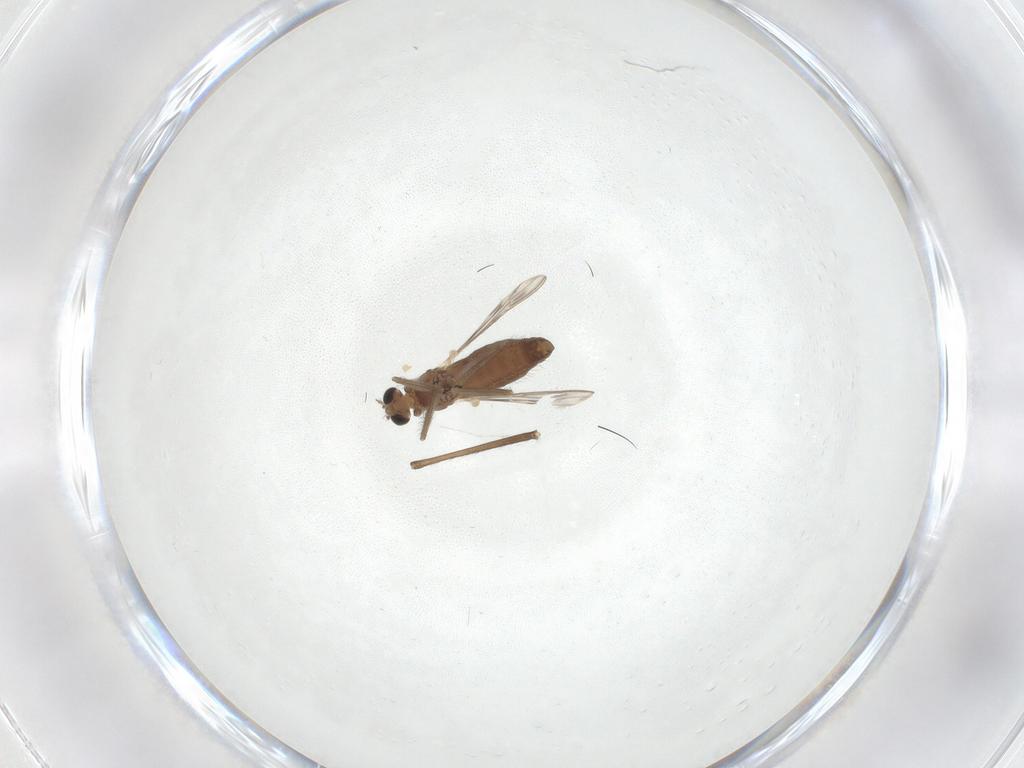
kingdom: Animalia
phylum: Arthropoda
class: Insecta
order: Diptera
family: Chironomidae
